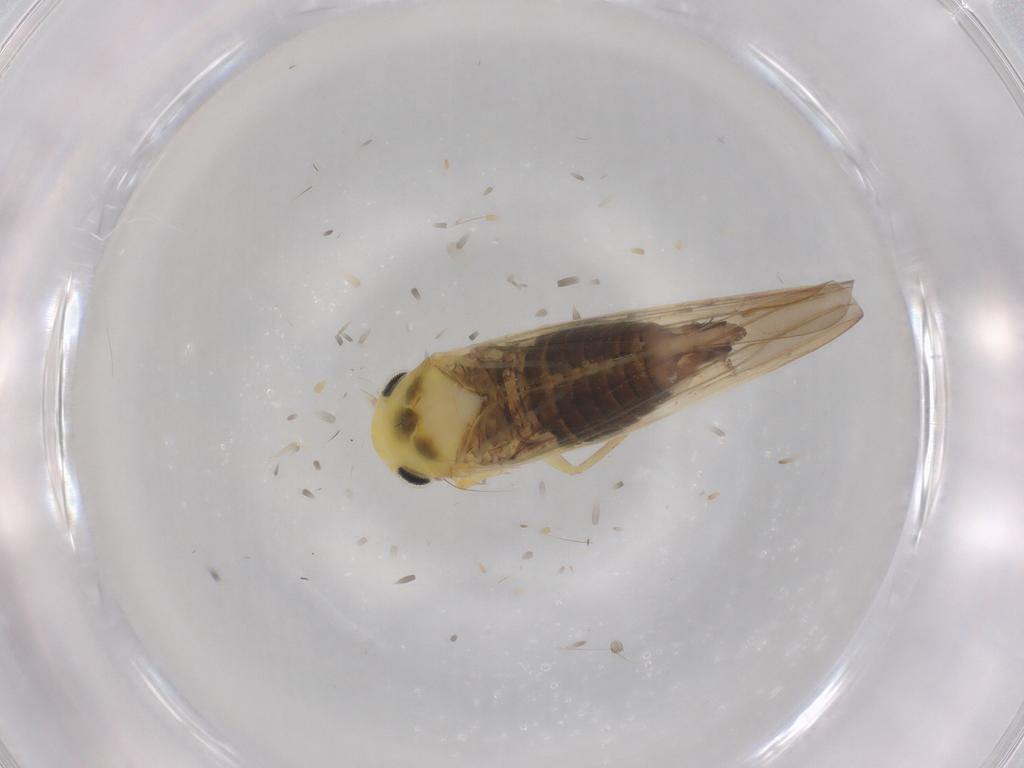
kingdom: Animalia
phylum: Arthropoda
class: Insecta
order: Hemiptera
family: Cicadellidae
